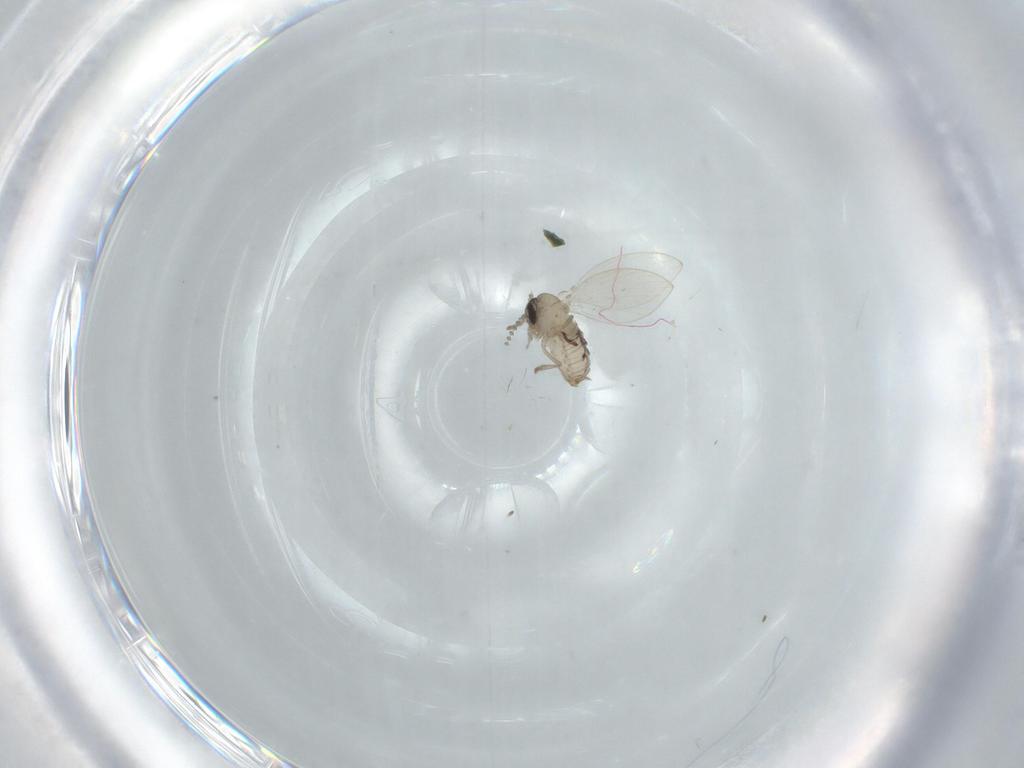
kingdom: Animalia
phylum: Arthropoda
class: Insecta
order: Diptera
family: Psychodidae
